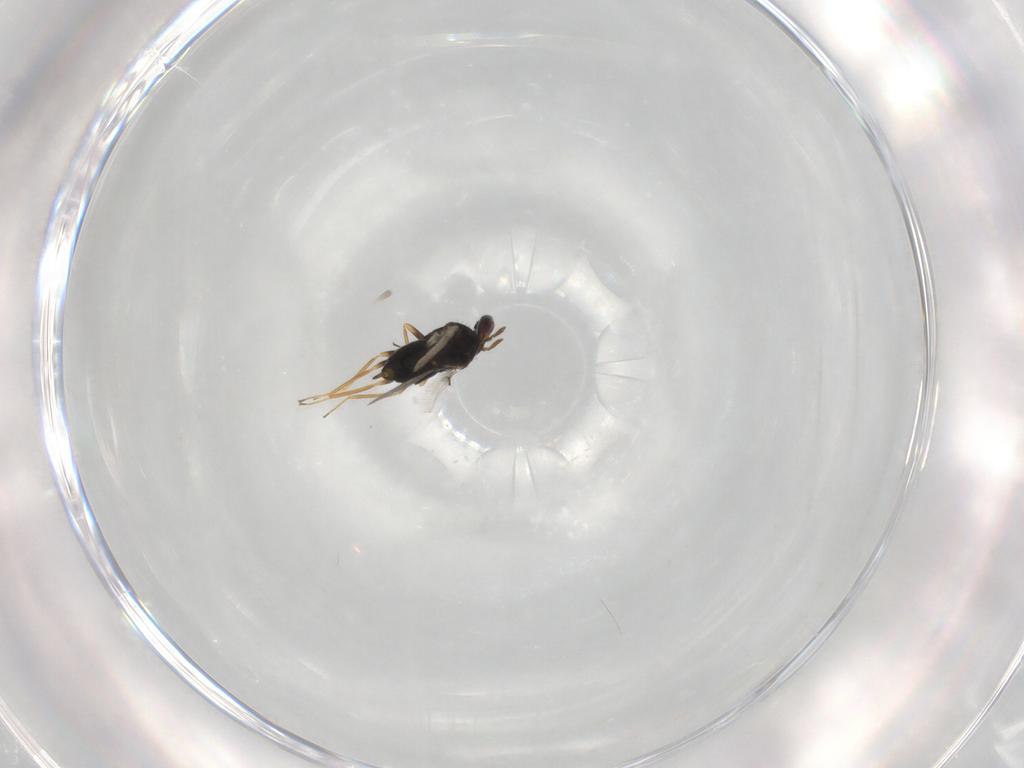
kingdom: Animalia
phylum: Arthropoda
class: Insecta
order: Hymenoptera
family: Trichogrammatidae
